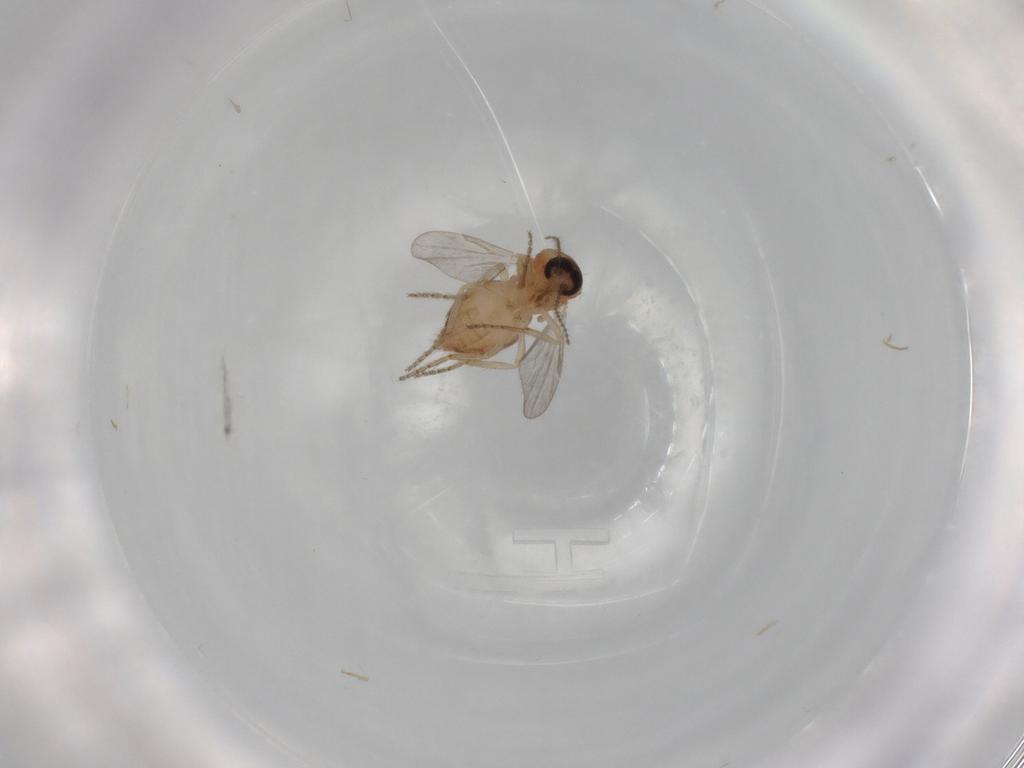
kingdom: Animalia
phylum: Arthropoda
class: Insecta
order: Diptera
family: Ceratopogonidae
